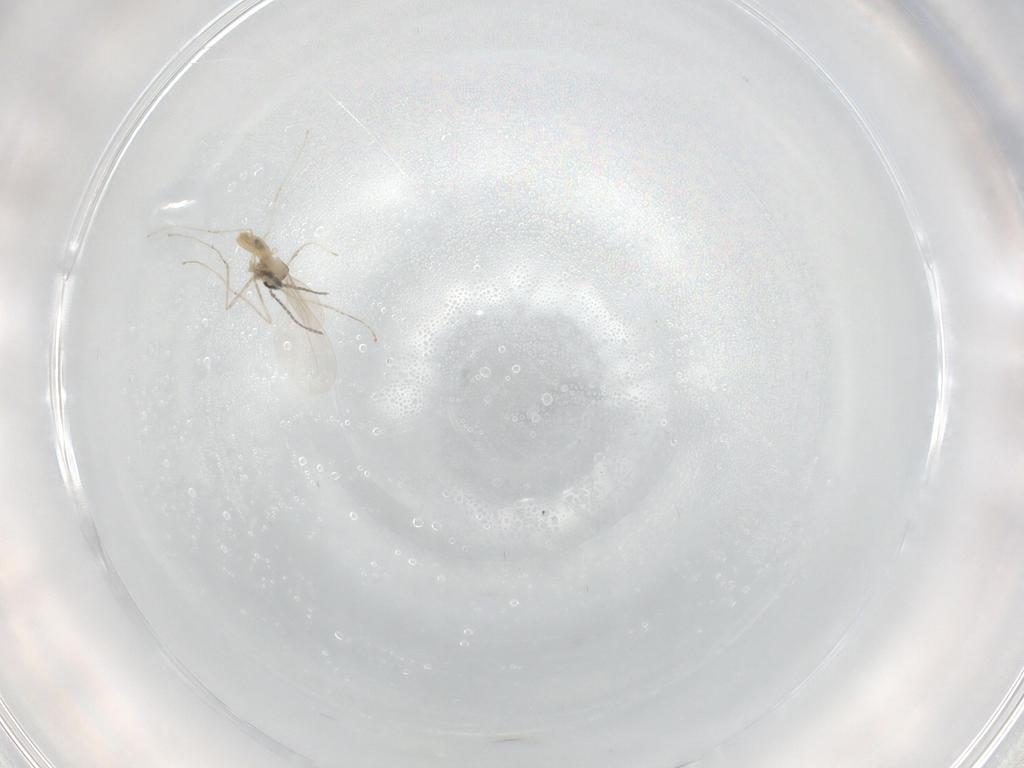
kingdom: Animalia
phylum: Arthropoda
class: Insecta
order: Diptera
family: Cecidomyiidae
